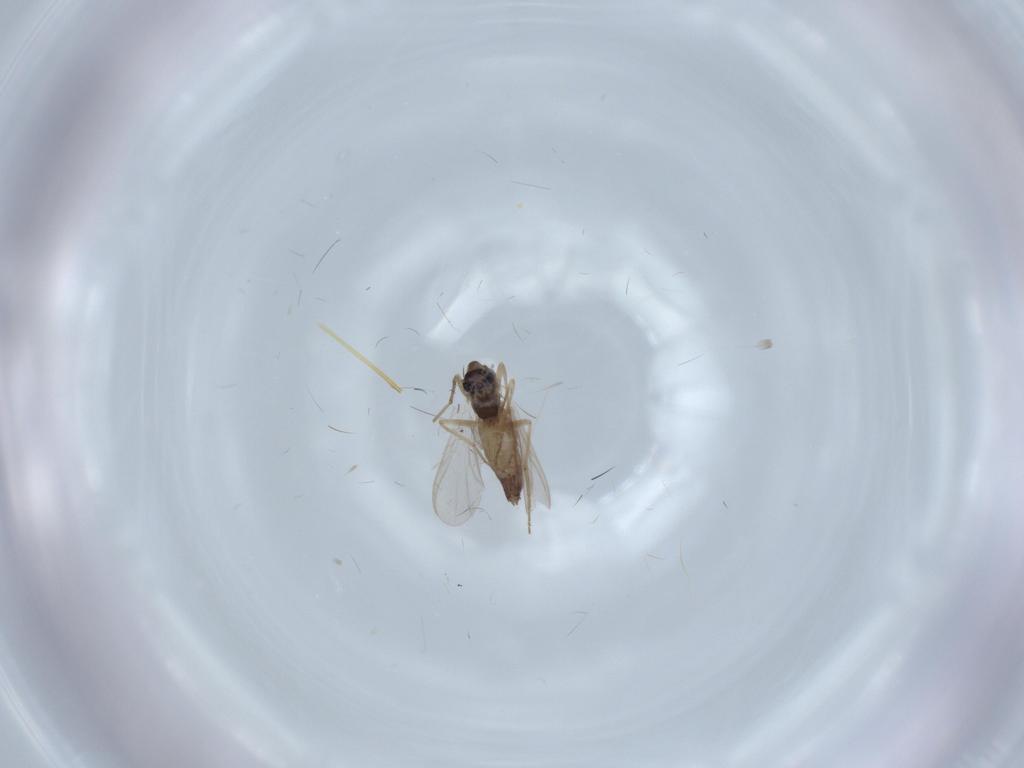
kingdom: Animalia
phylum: Arthropoda
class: Insecta
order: Diptera
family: Chironomidae
